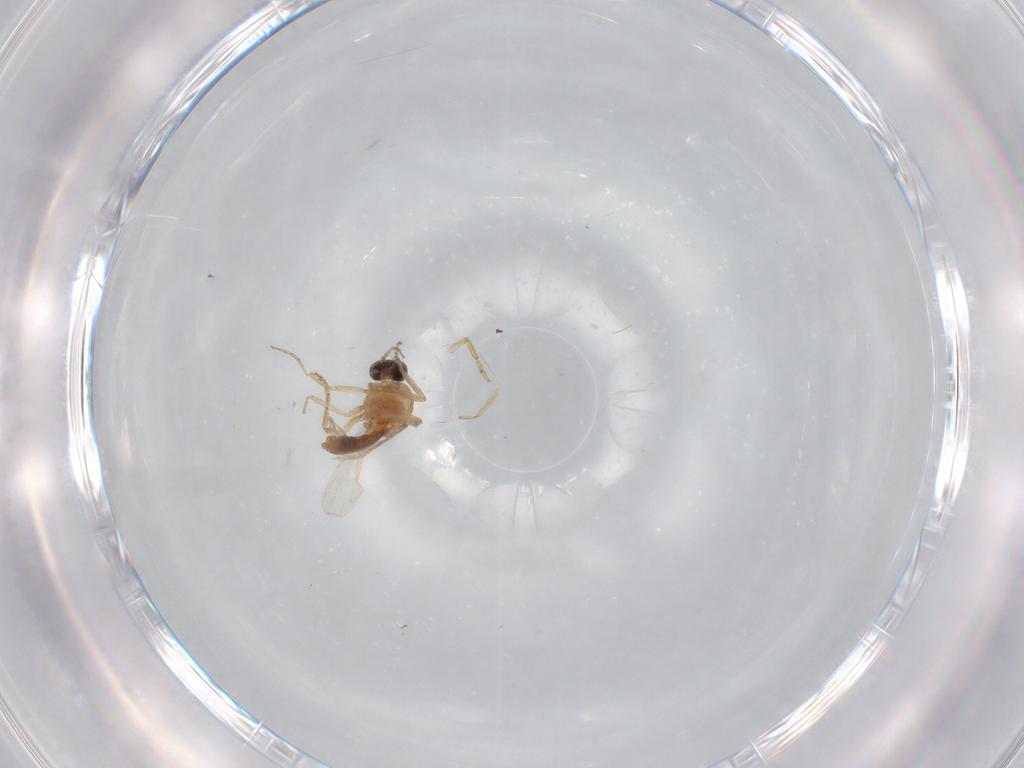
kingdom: Animalia
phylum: Arthropoda
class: Insecta
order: Diptera
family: Ceratopogonidae
